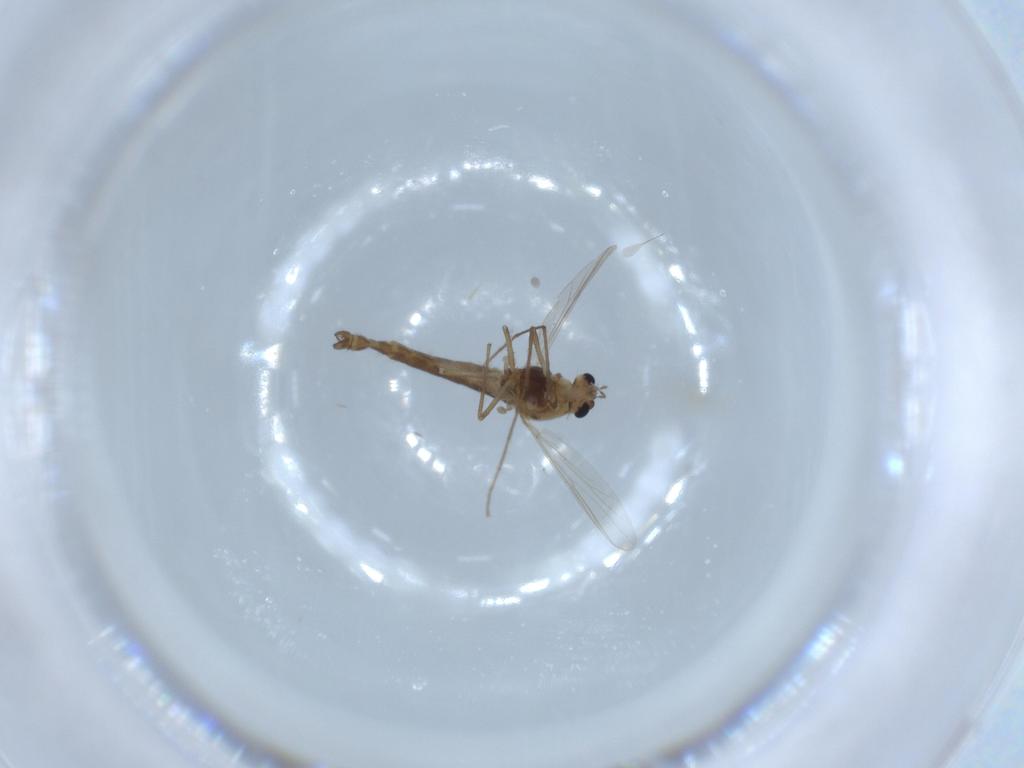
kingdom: Animalia
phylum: Arthropoda
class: Insecta
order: Diptera
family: Chironomidae
